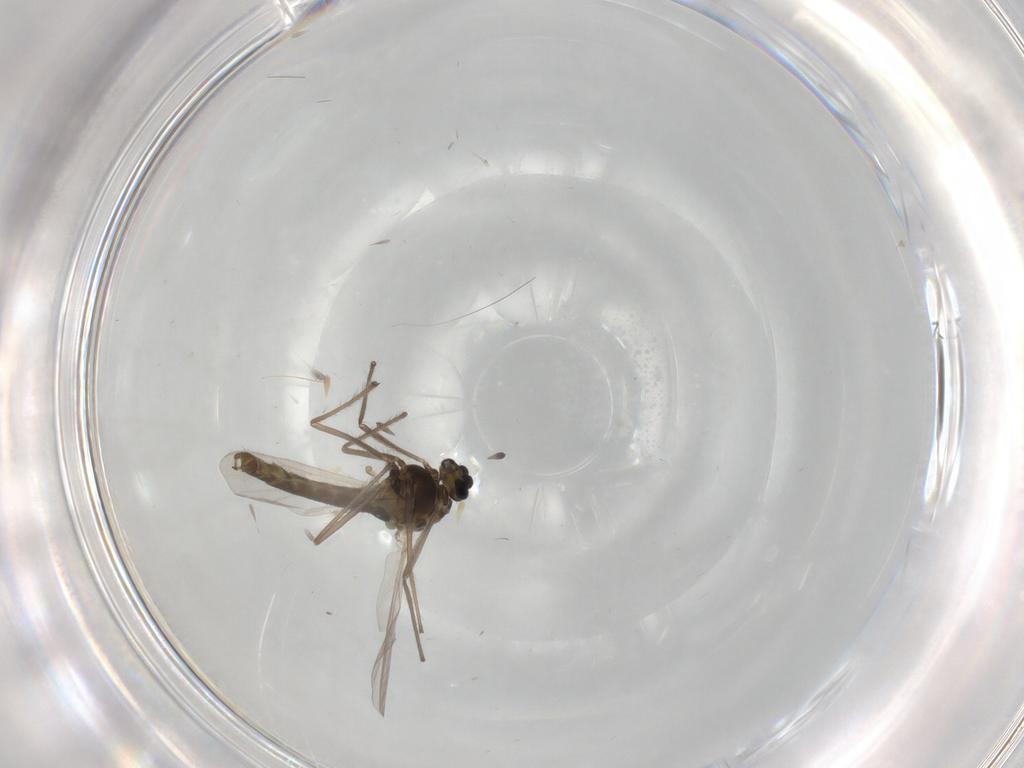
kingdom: Animalia
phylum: Arthropoda
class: Insecta
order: Diptera
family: Chironomidae
